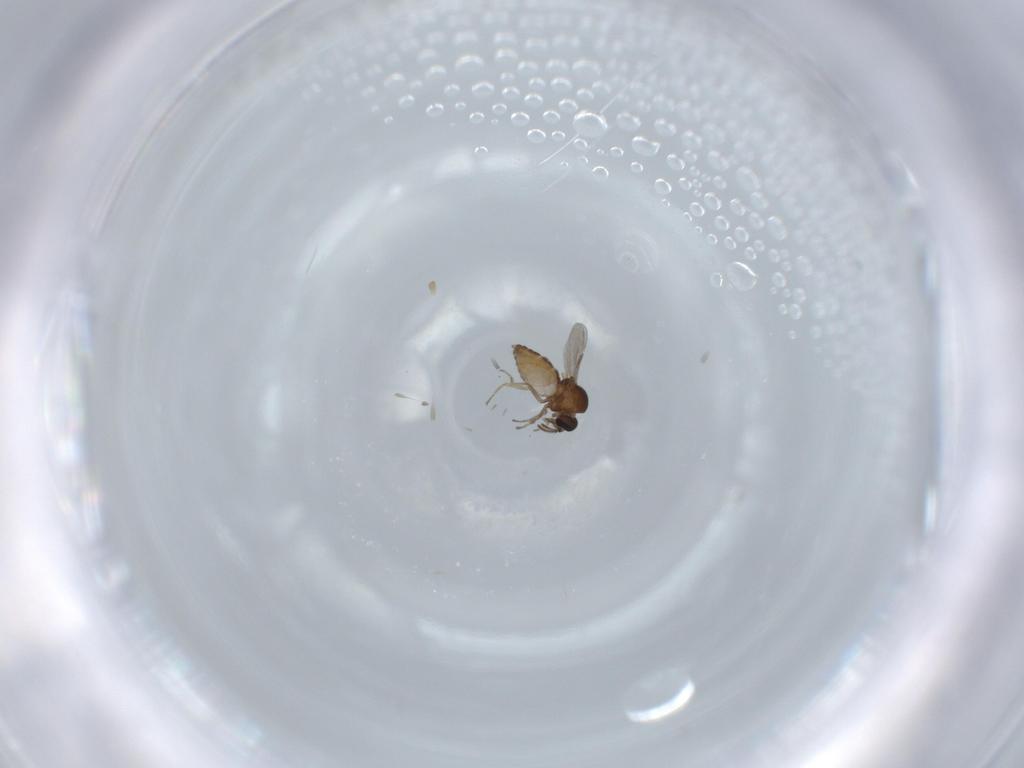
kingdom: Animalia
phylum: Arthropoda
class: Insecta
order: Diptera
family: Ceratopogonidae
